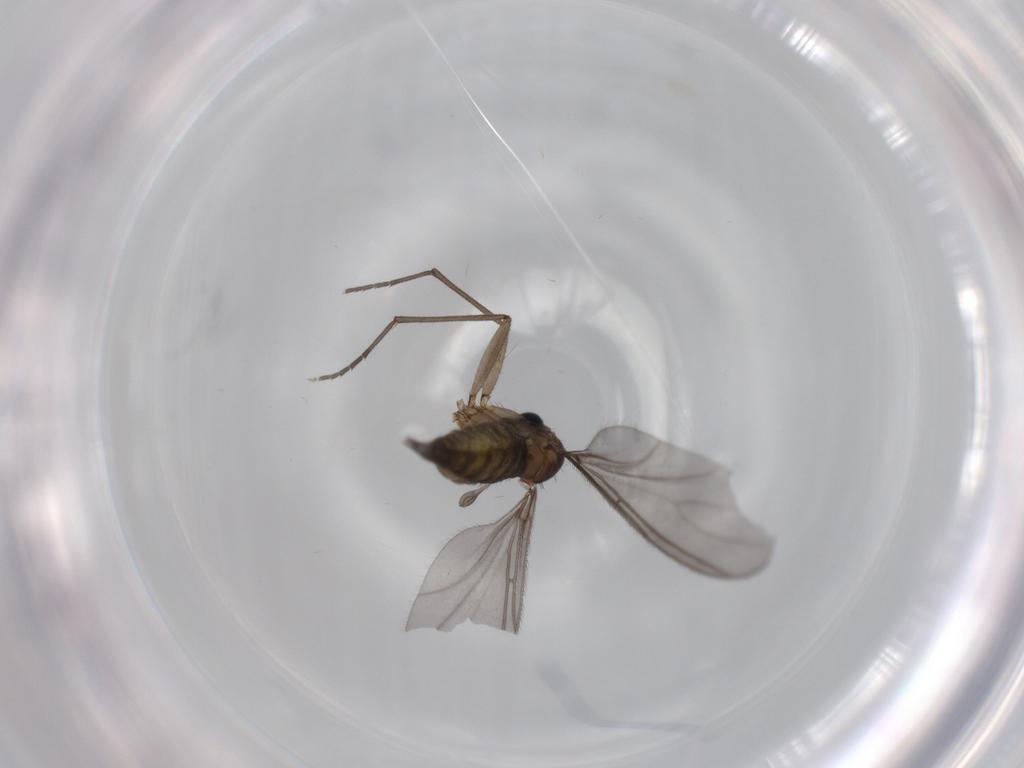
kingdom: Animalia
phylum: Arthropoda
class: Insecta
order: Diptera
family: Sciaridae
